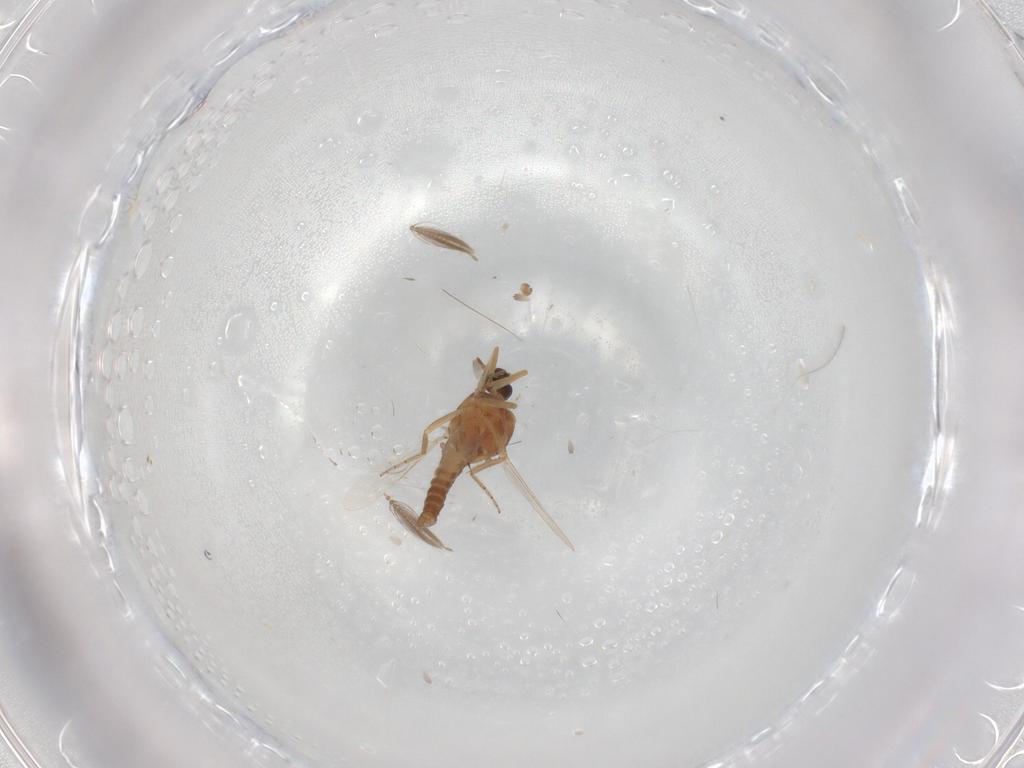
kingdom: Animalia
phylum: Arthropoda
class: Insecta
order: Diptera
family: Ceratopogonidae
